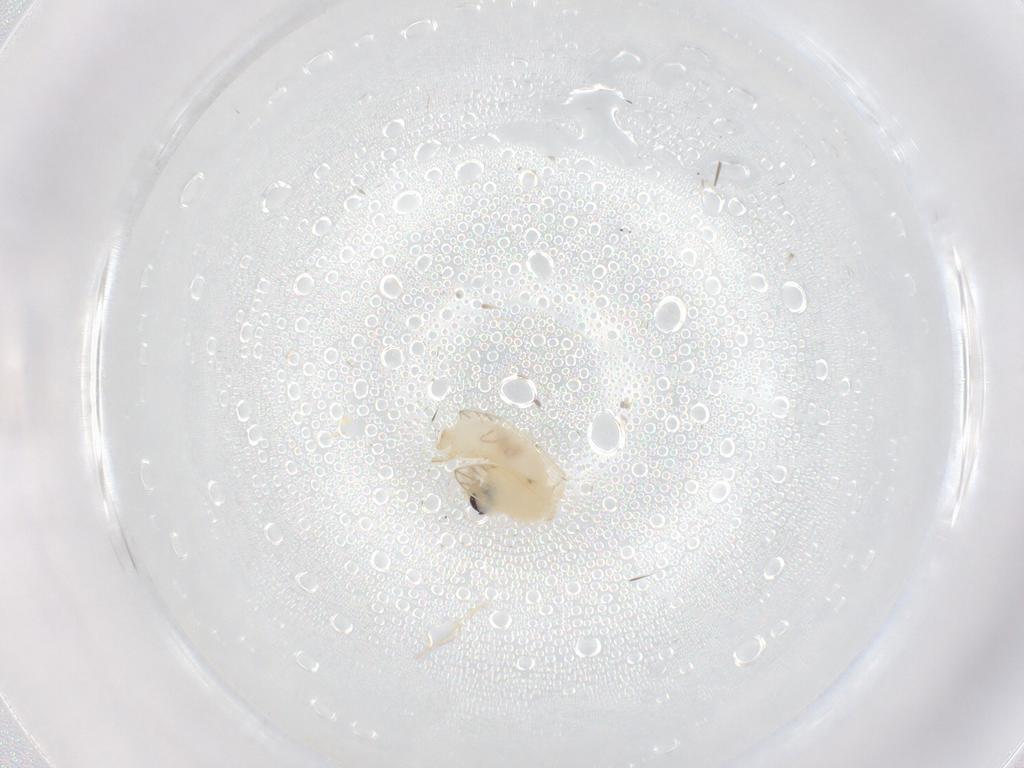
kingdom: Animalia
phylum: Arthropoda
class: Insecta
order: Diptera
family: Psychodidae
